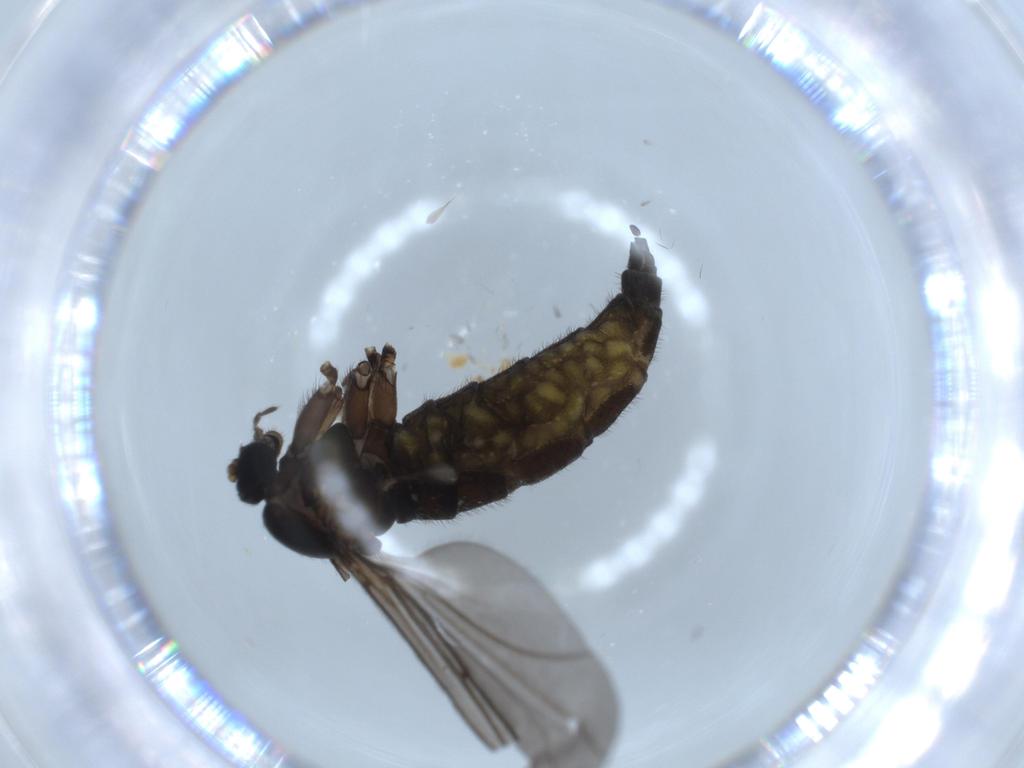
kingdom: Animalia
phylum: Arthropoda
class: Insecta
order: Diptera
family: Sciaridae
